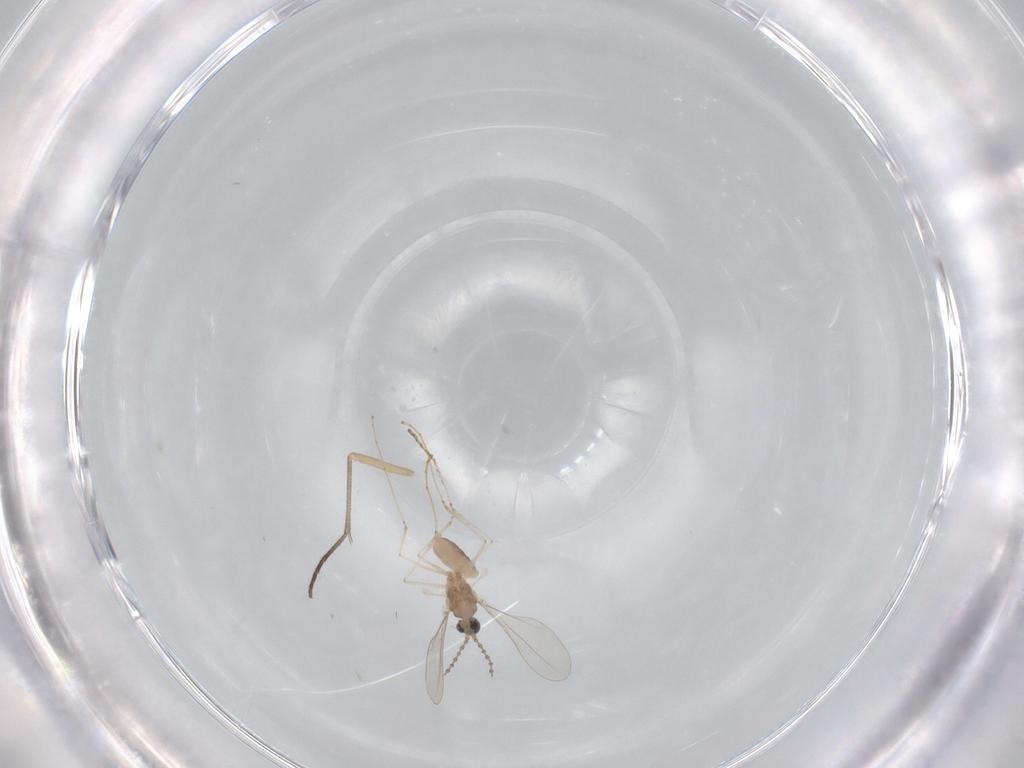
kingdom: Animalia
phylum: Arthropoda
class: Insecta
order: Diptera
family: Cecidomyiidae
